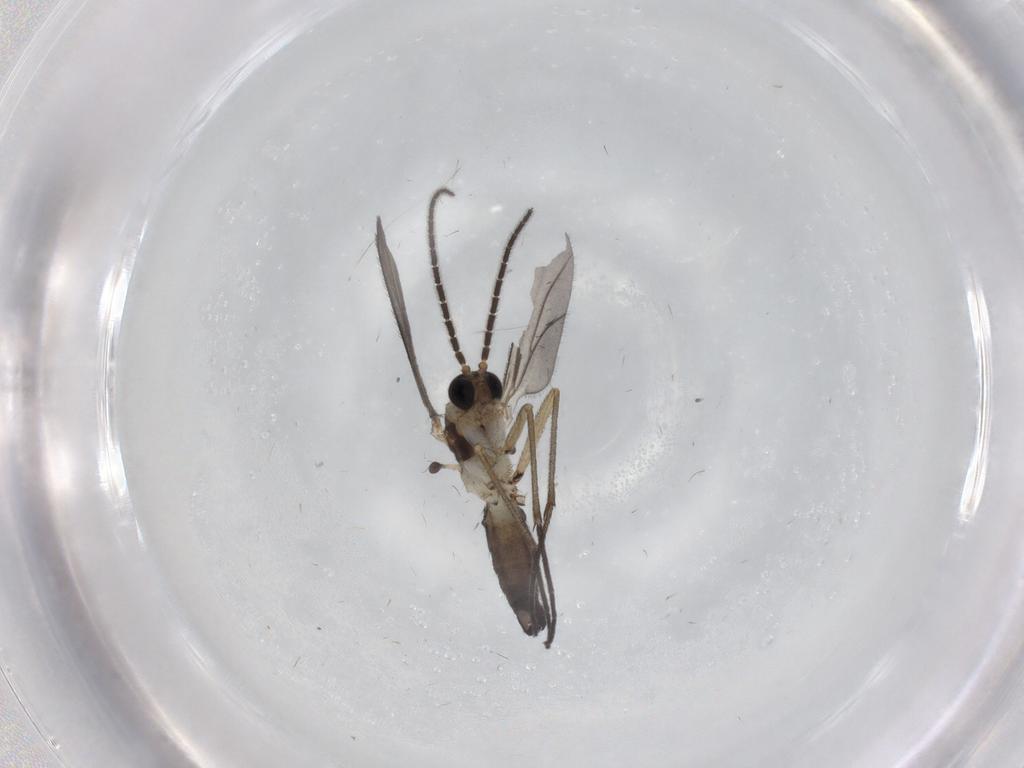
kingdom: Animalia
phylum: Arthropoda
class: Insecta
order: Diptera
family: Sciaridae
